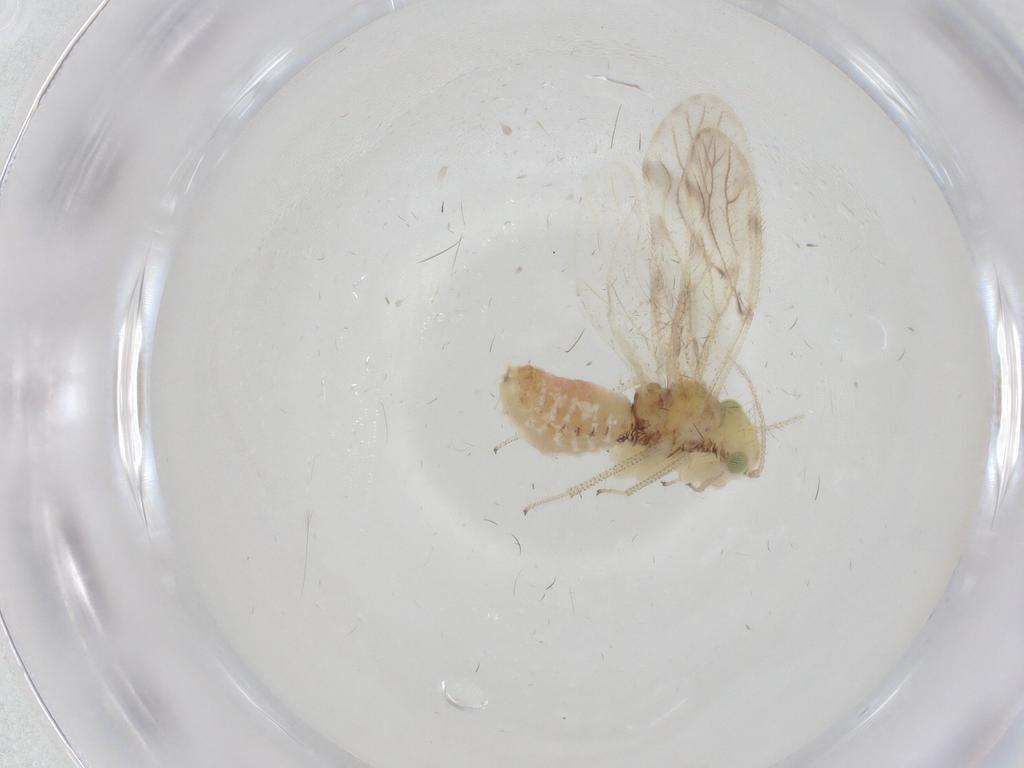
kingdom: Animalia
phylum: Arthropoda
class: Insecta
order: Psocodea
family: Pseudocaeciliidae
